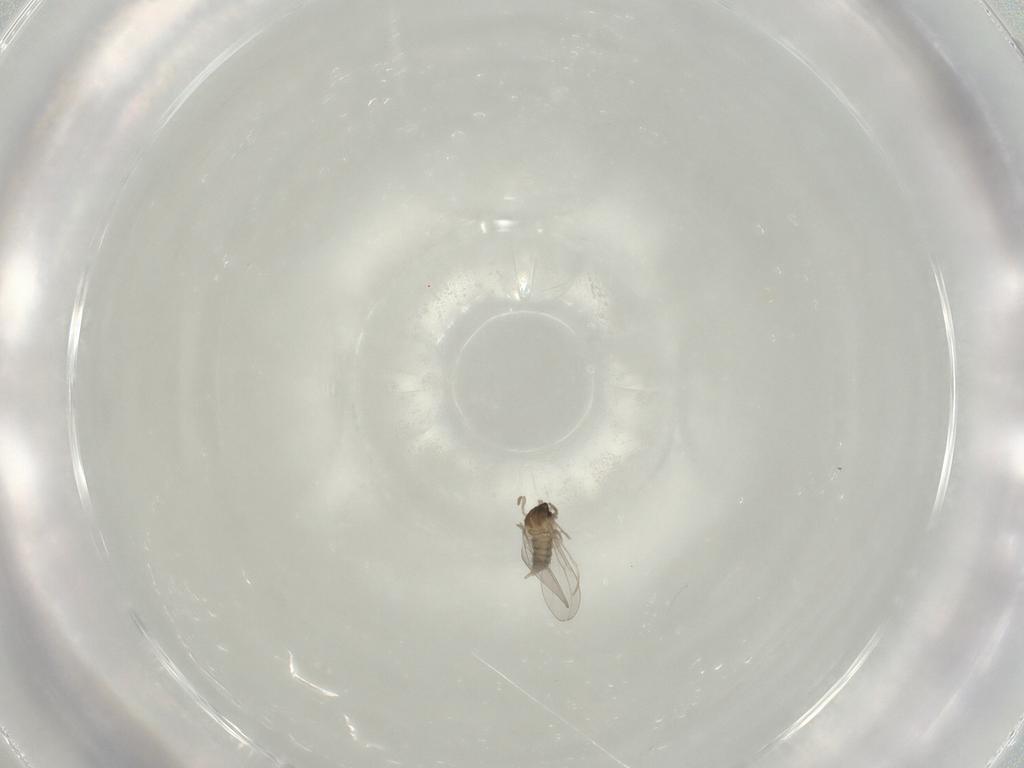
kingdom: Animalia
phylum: Arthropoda
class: Insecta
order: Diptera
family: Cecidomyiidae
